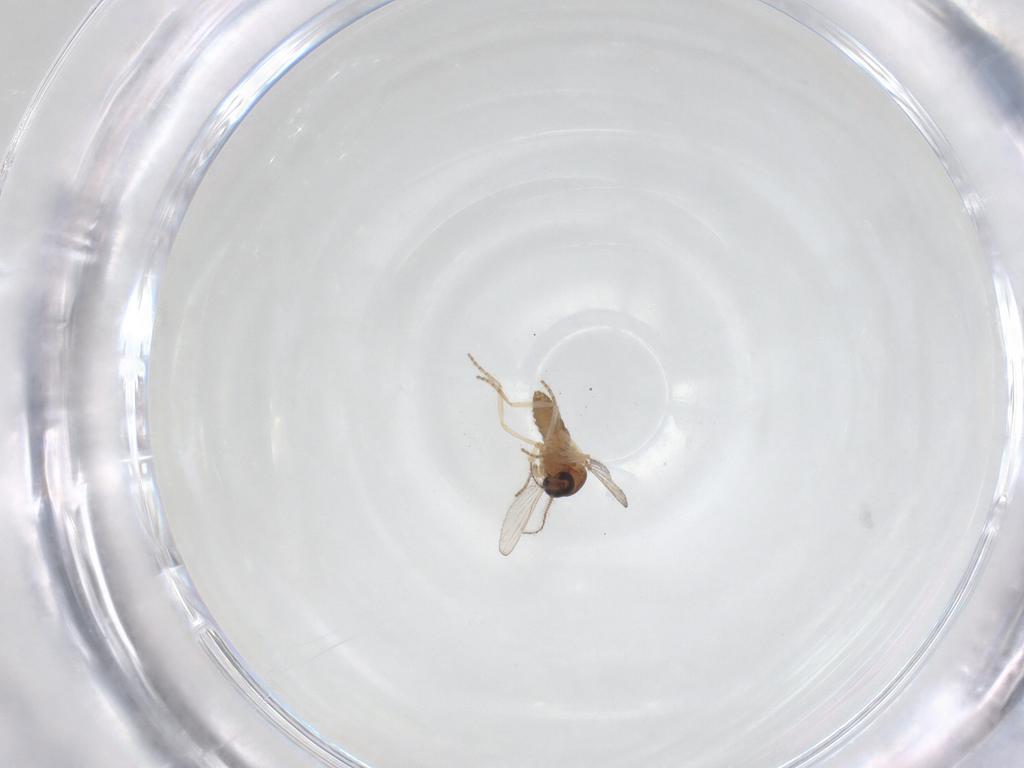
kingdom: Animalia
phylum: Arthropoda
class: Insecta
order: Diptera
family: Ceratopogonidae
